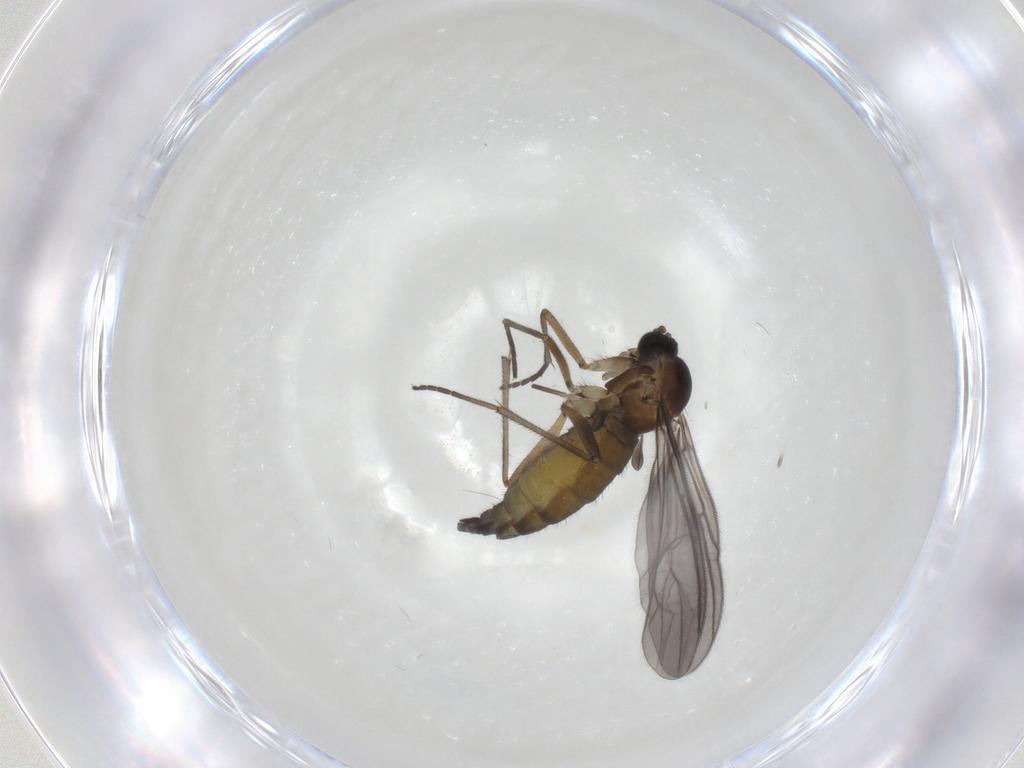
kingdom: Animalia
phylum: Arthropoda
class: Insecta
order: Diptera
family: Sciaridae
